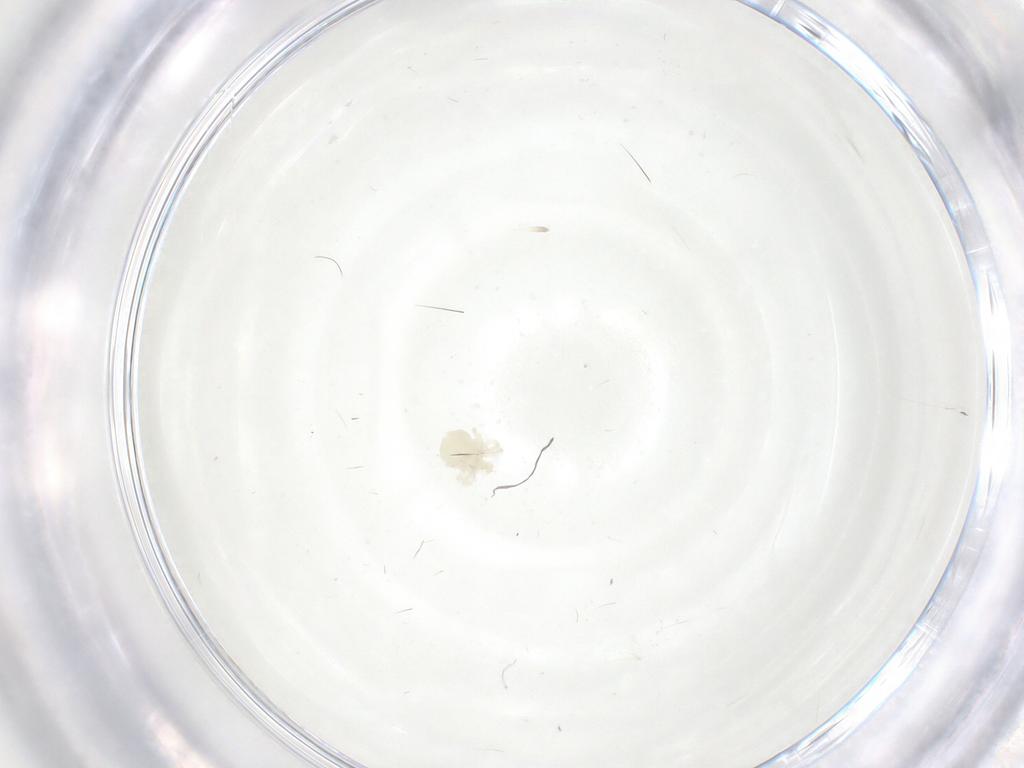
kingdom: Animalia
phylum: Arthropoda
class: Arachnida
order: Trombidiformes
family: Anystidae
